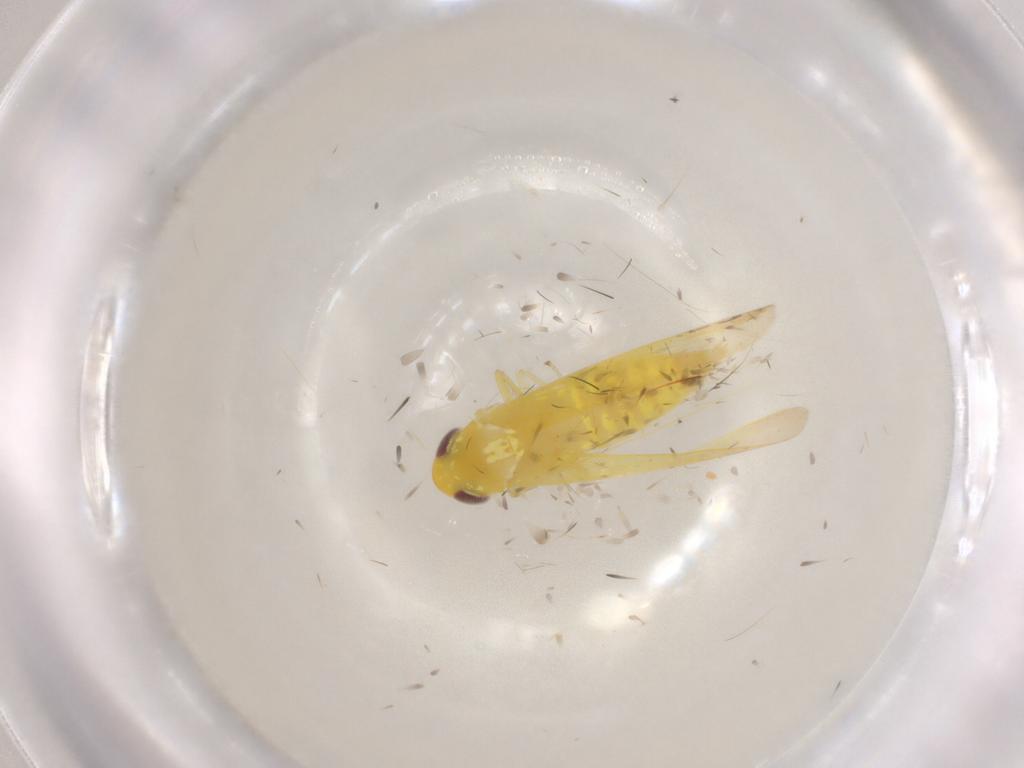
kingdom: Animalia
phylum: Arthropoda
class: Insecta
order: Hemiptera
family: Cicadellidae
